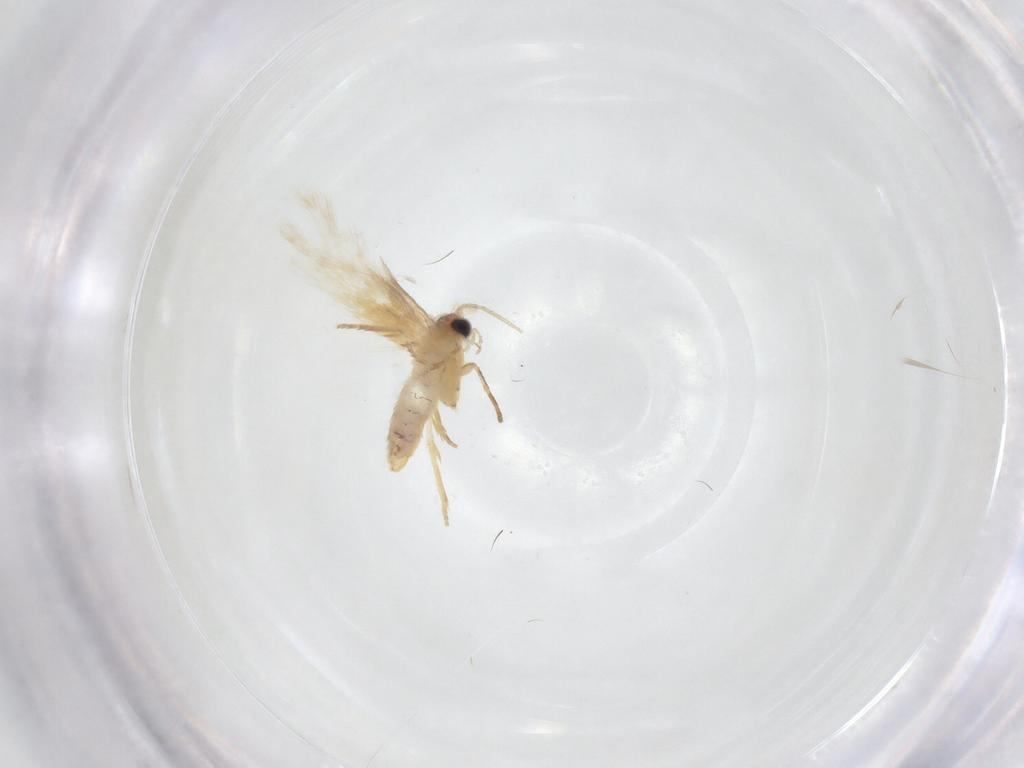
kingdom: Animalia
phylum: Arthropoda
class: Insecta
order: Lepidoptera
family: Nepticulidae
